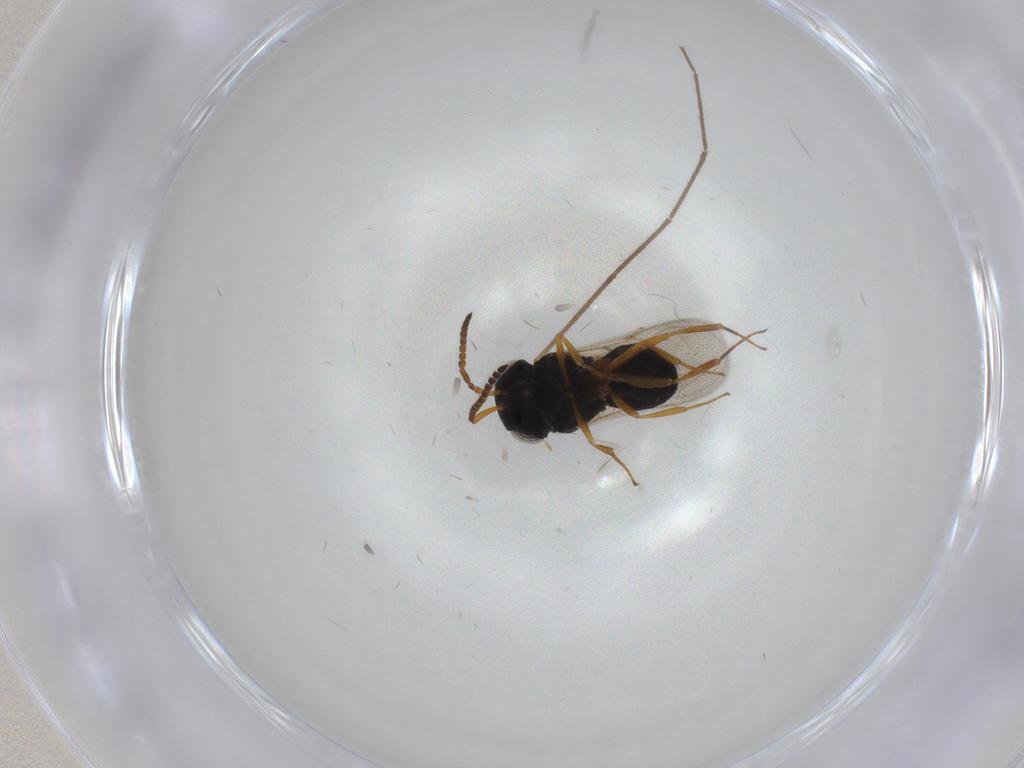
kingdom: Animalia
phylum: Arthropoda
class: Insecta
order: Hymenoptera
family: Scelionidae
